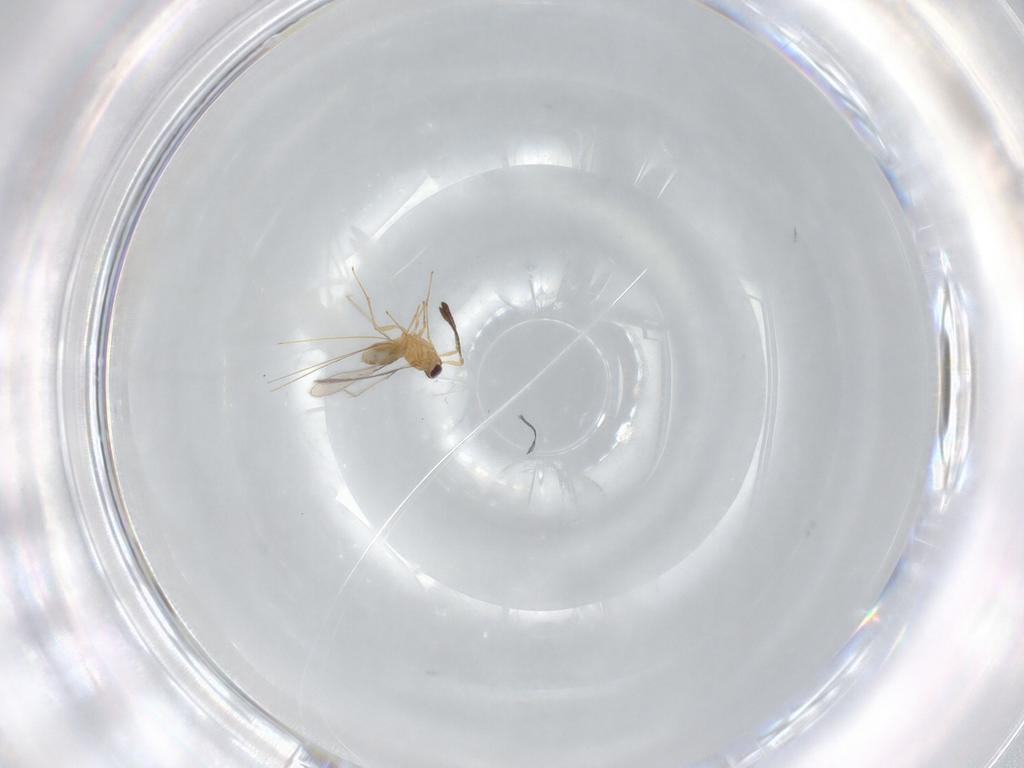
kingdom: Animalia
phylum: Arthropoda
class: Insecta
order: Hymenoptera
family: Mymaridae
